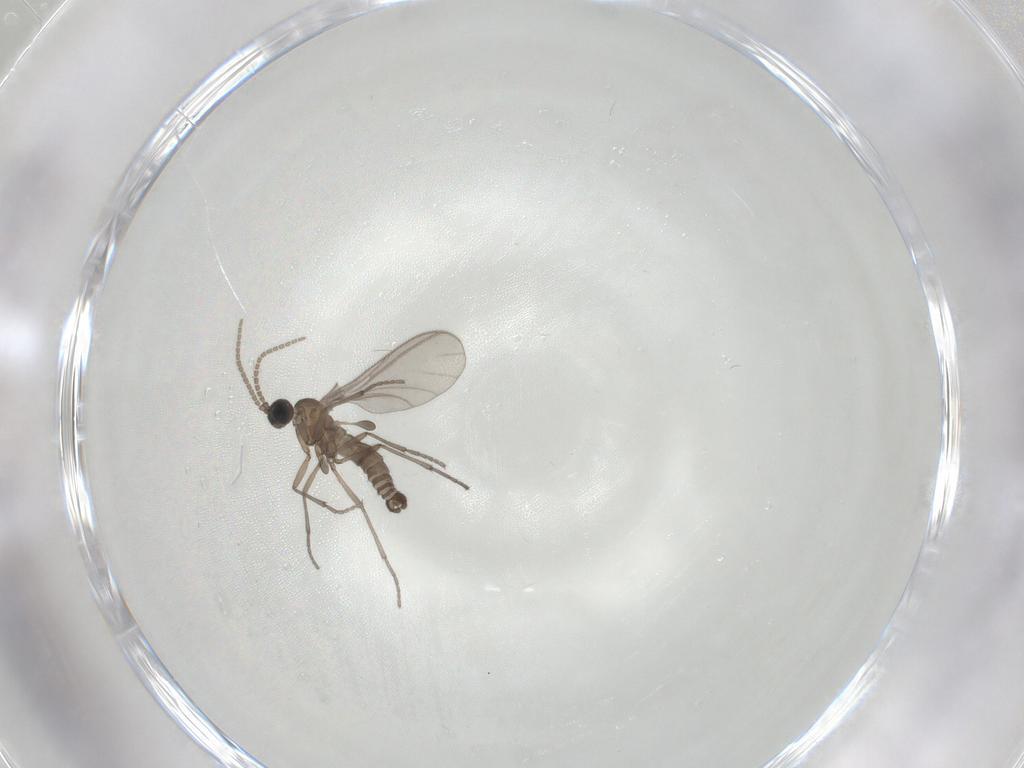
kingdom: Animalia
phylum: Arthropoda
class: Insecta
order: Diptera
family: Sciaridae
